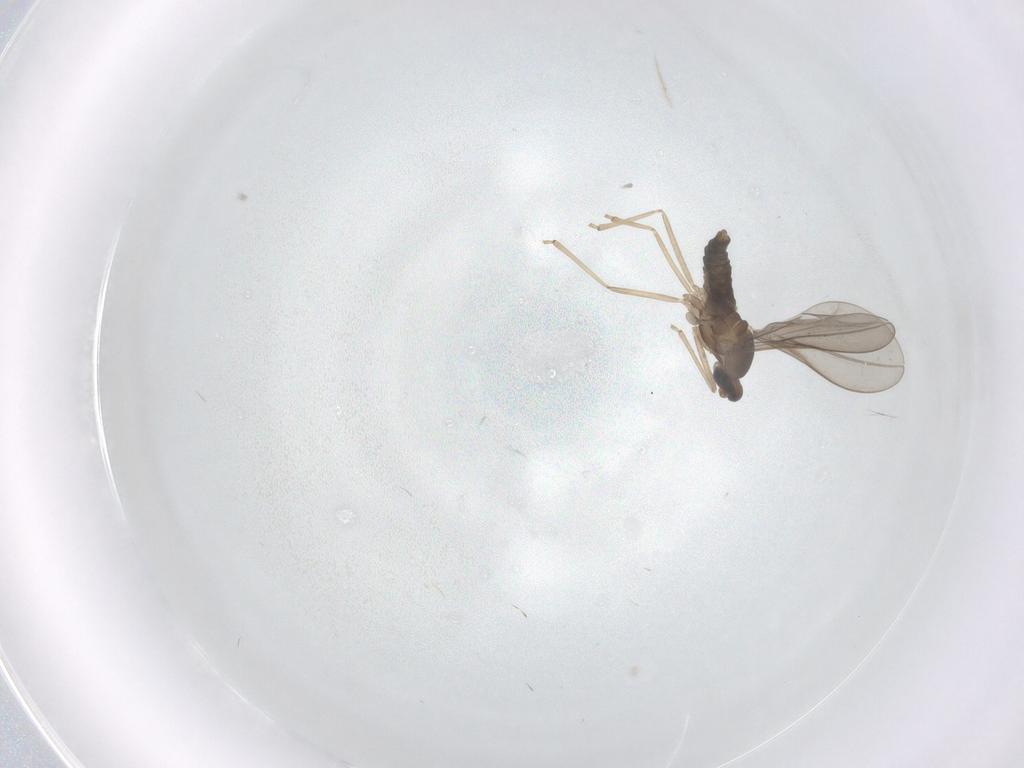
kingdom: Animalia
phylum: Arthropoda
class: Insecta
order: Diptera
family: Cecidomyiidae
